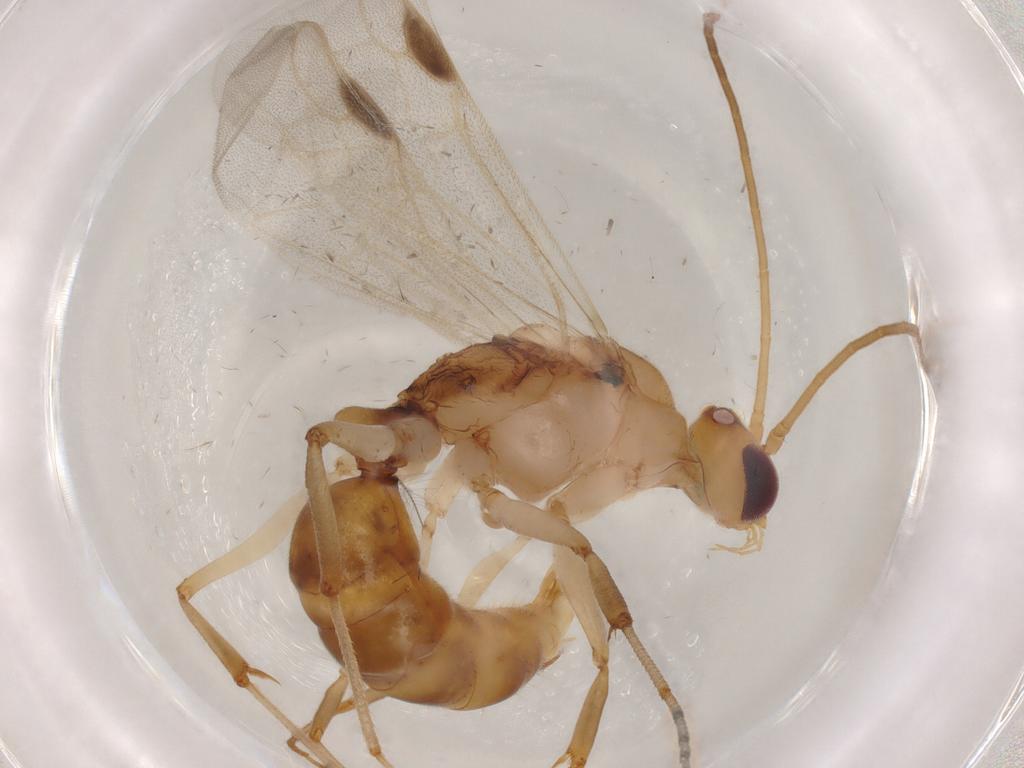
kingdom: Animalia
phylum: Arthropoda
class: Insecta
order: Hymenoptera
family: Formicidae
